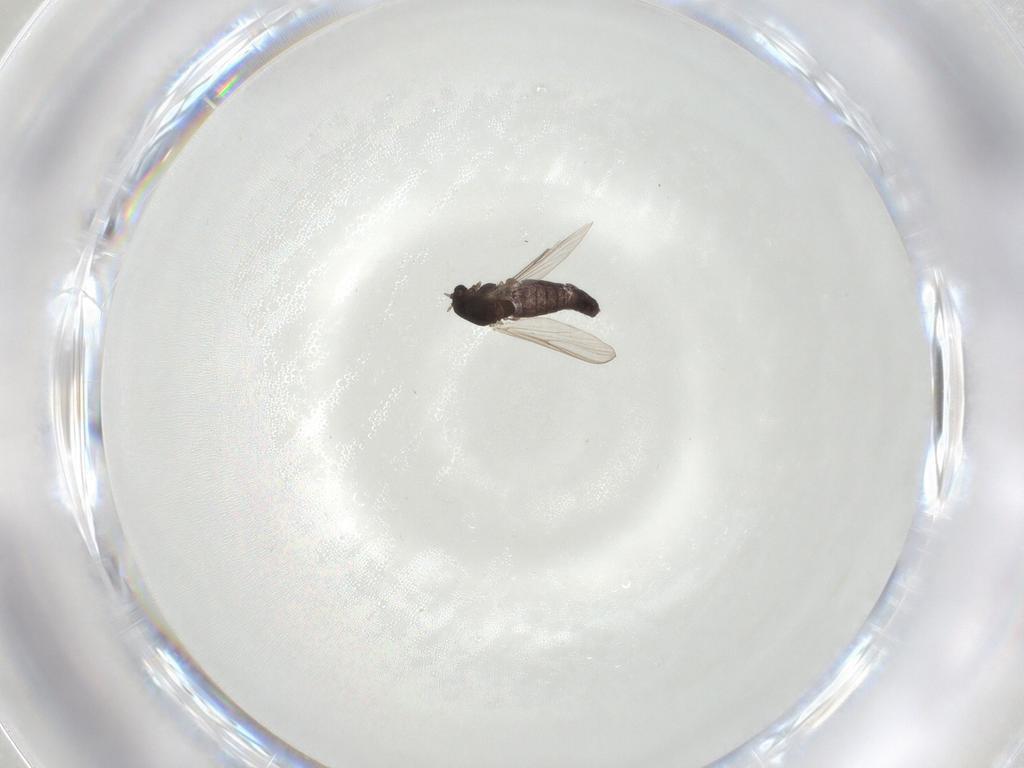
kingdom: Animalia
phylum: Arthropoda
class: Insecta
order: Diptera
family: Chironomidae
